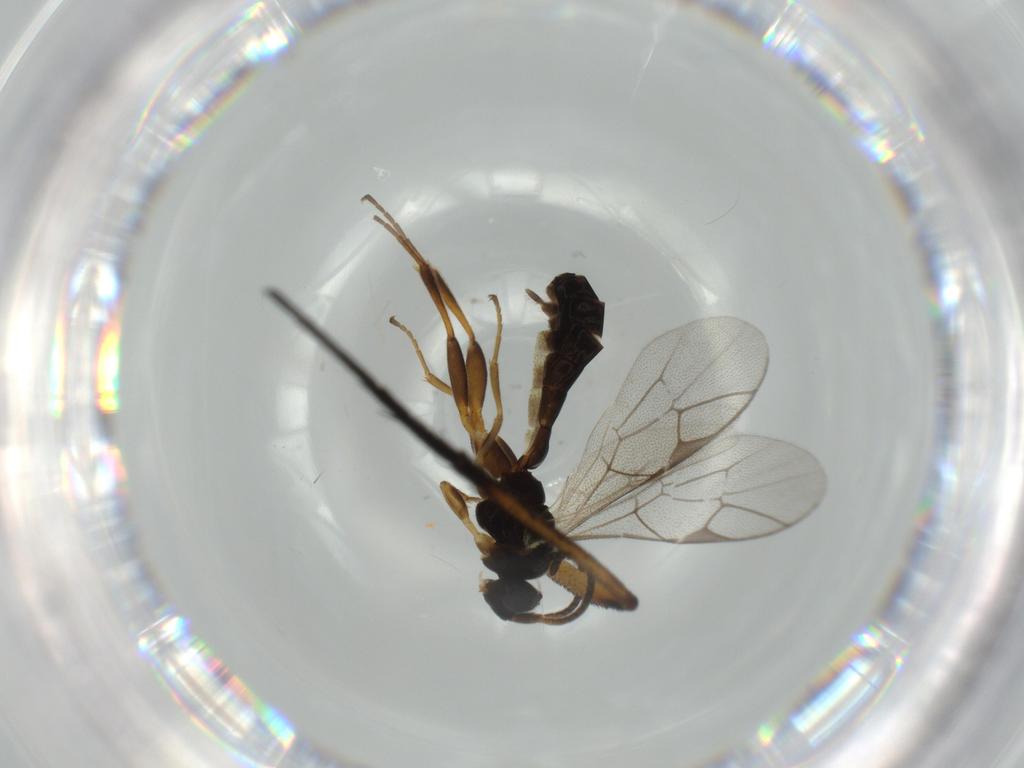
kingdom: Animalia
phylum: Arthropoda
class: Insecta
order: Hymenoptera
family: Ichneumonidae
